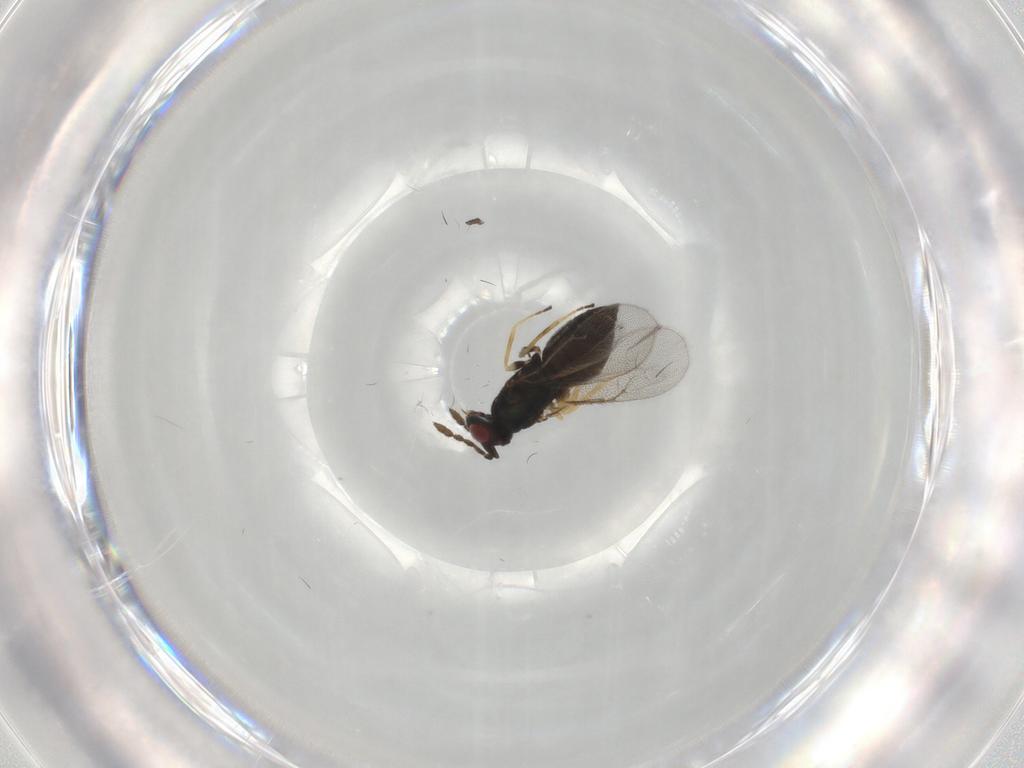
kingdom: Animalia
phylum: Arthropoda
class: Insecta
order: Hymenoptera
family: Eulophidae
